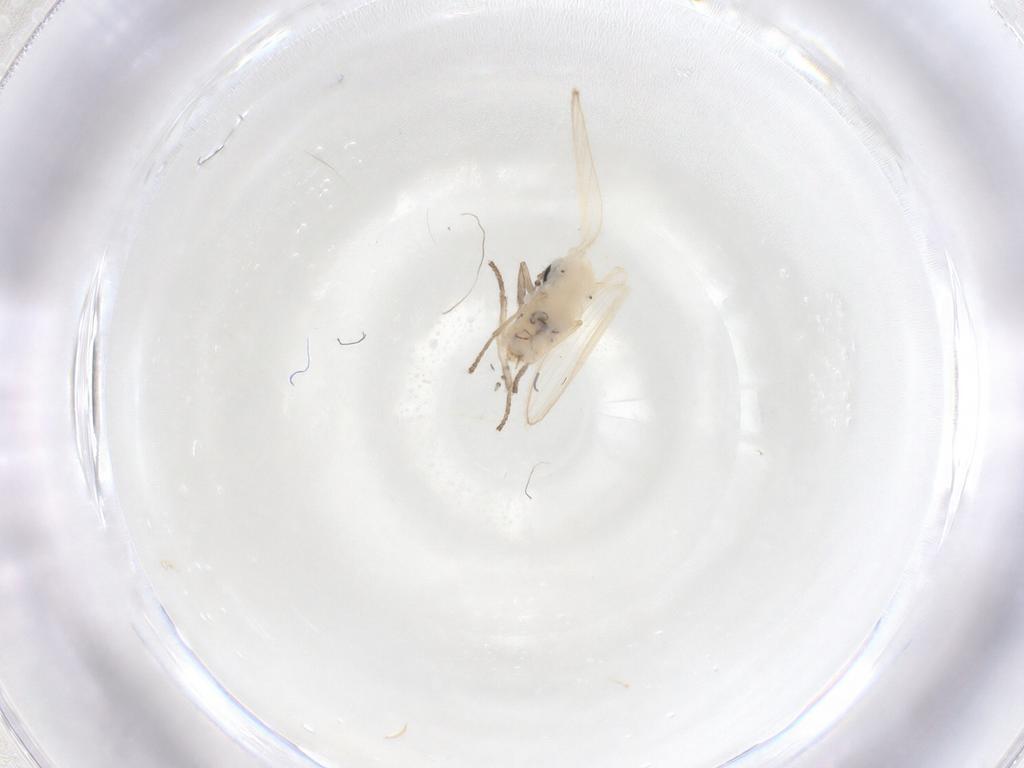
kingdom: Animalia
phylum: Arthropoda
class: Insecta
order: Diptera
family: Psychodidae
